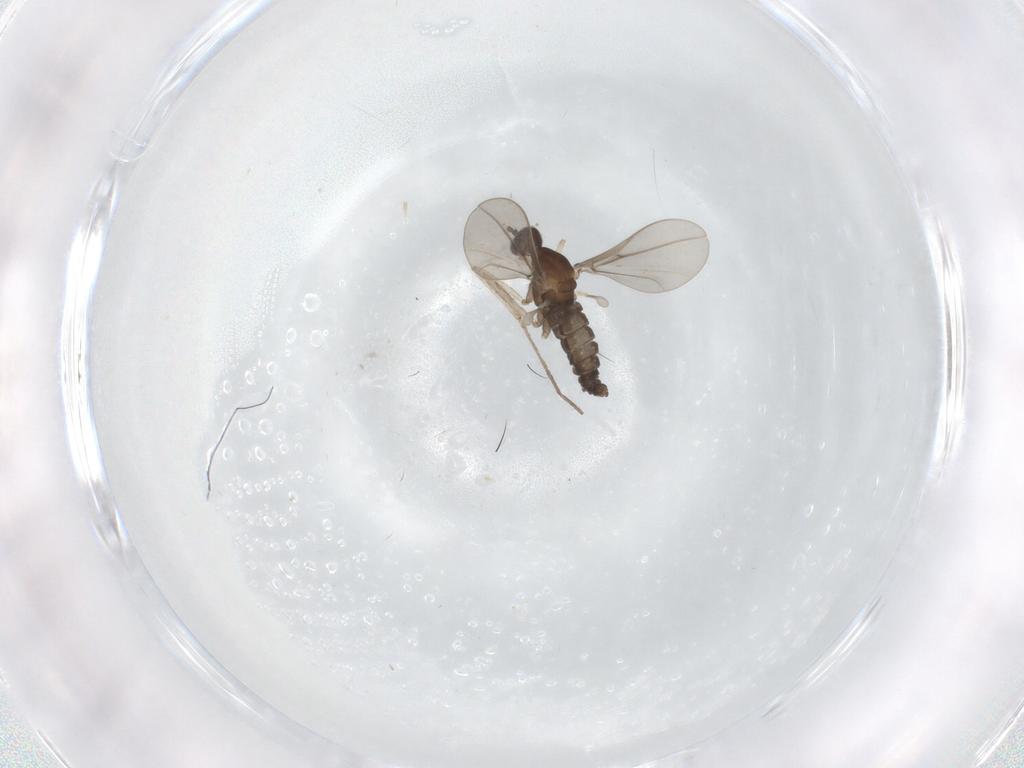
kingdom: Animalia
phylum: Arthropoda
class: Insecta
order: Diptera
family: Cecidomyiidae
